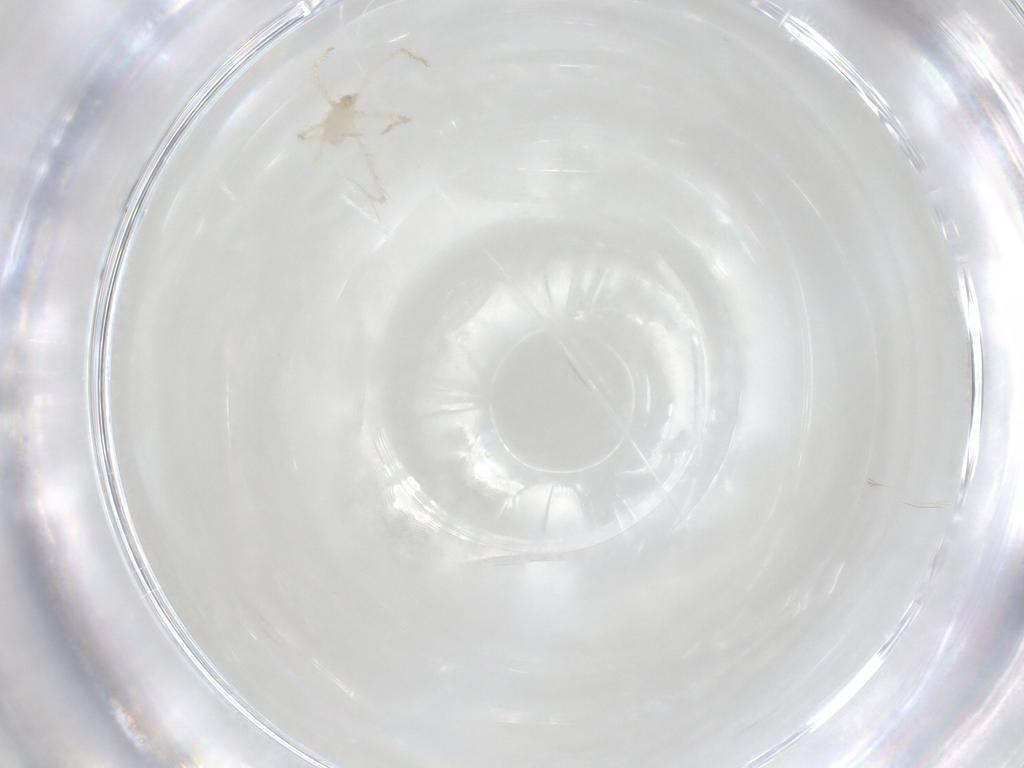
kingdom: Animalia
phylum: Arthropoda
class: Arachnida
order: Trombidiformes
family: Erythraeidae
